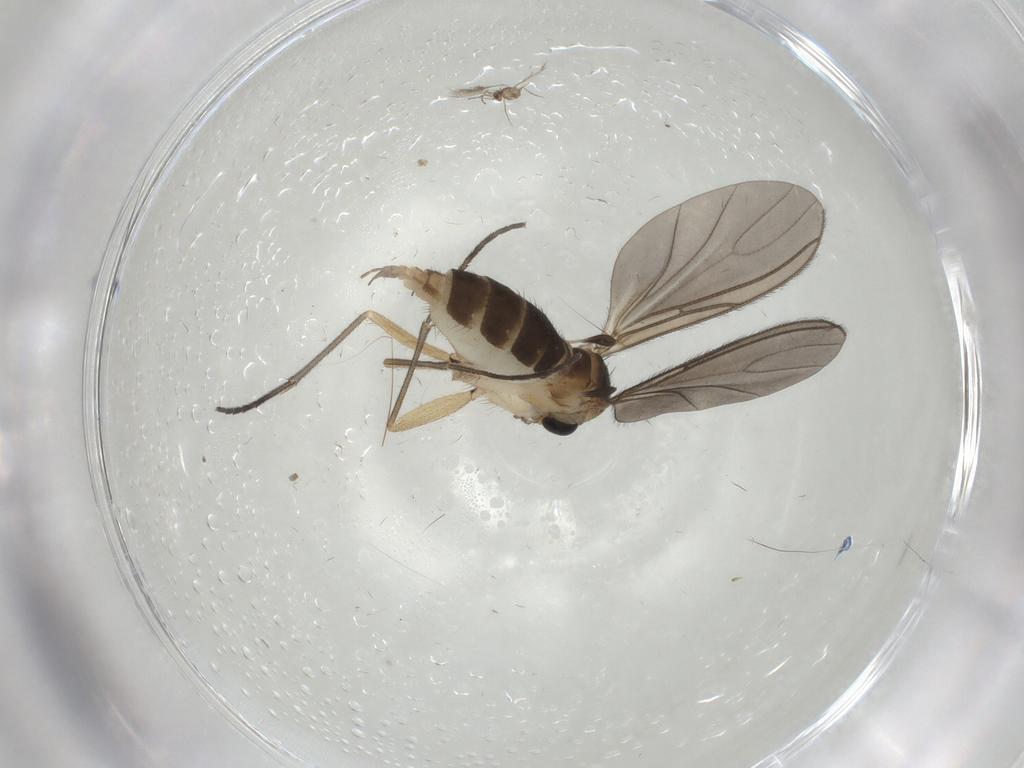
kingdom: Animalia
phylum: Arthropoda
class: Insecta
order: Diptera
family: Sciaridae
